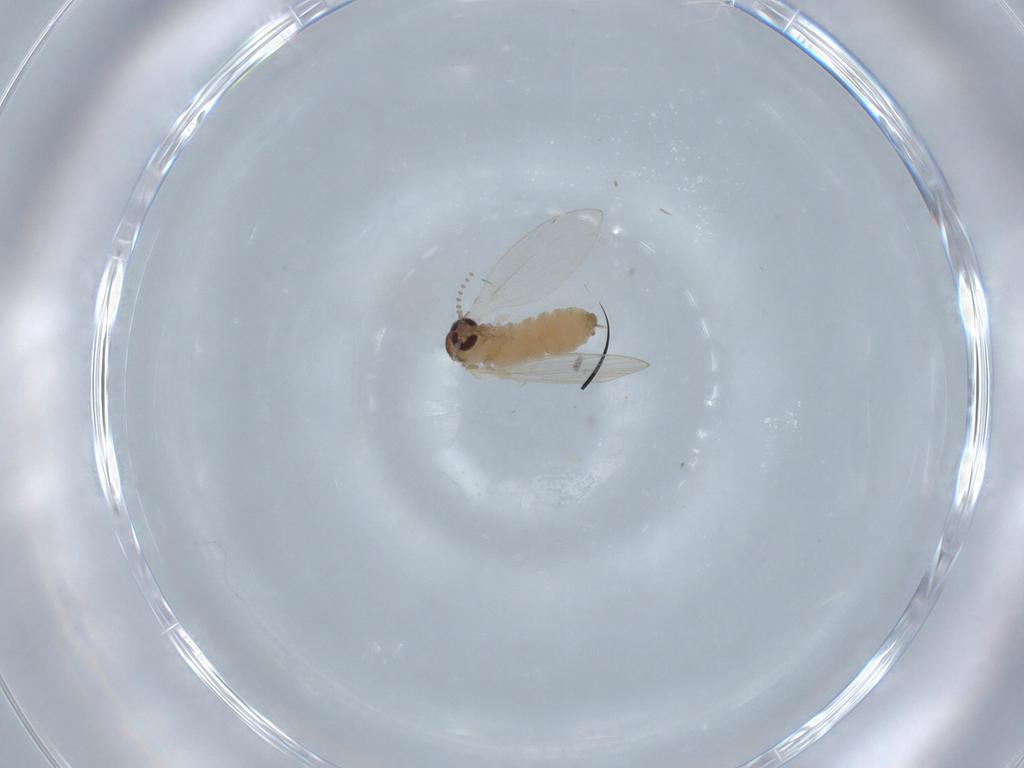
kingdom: Animalia
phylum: Arthropoda
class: Insecta
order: Diptera
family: Psychodidae
